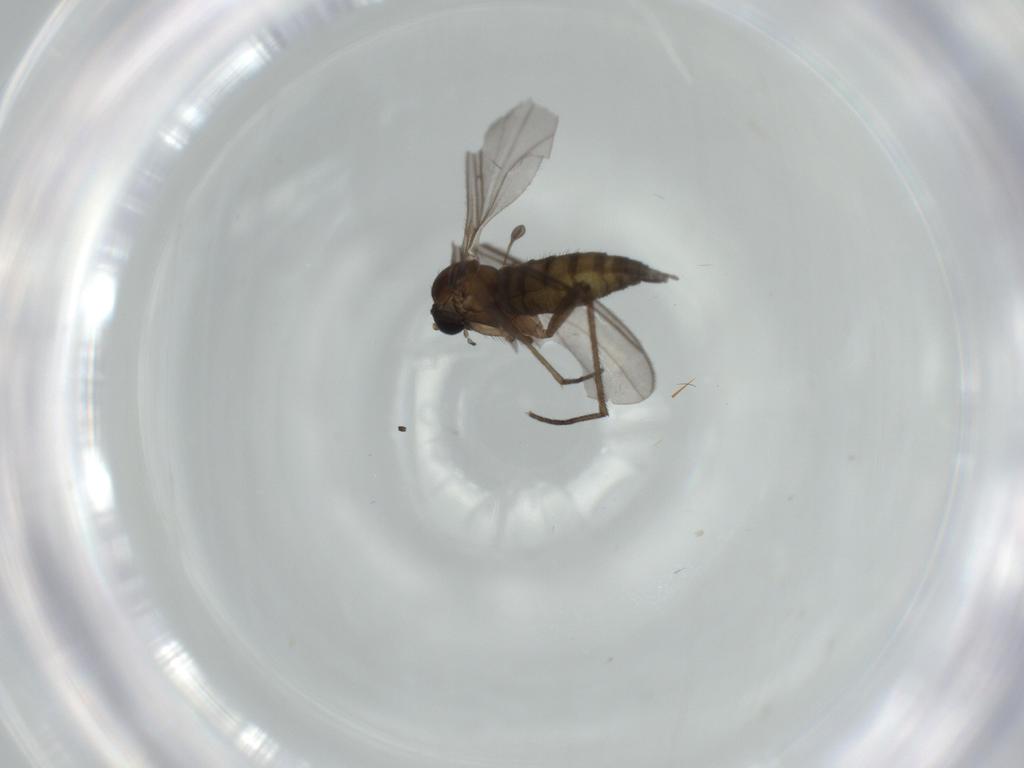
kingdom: Animalia
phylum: Arthropoda
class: Insecta
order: Diptera
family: Sciaridae
